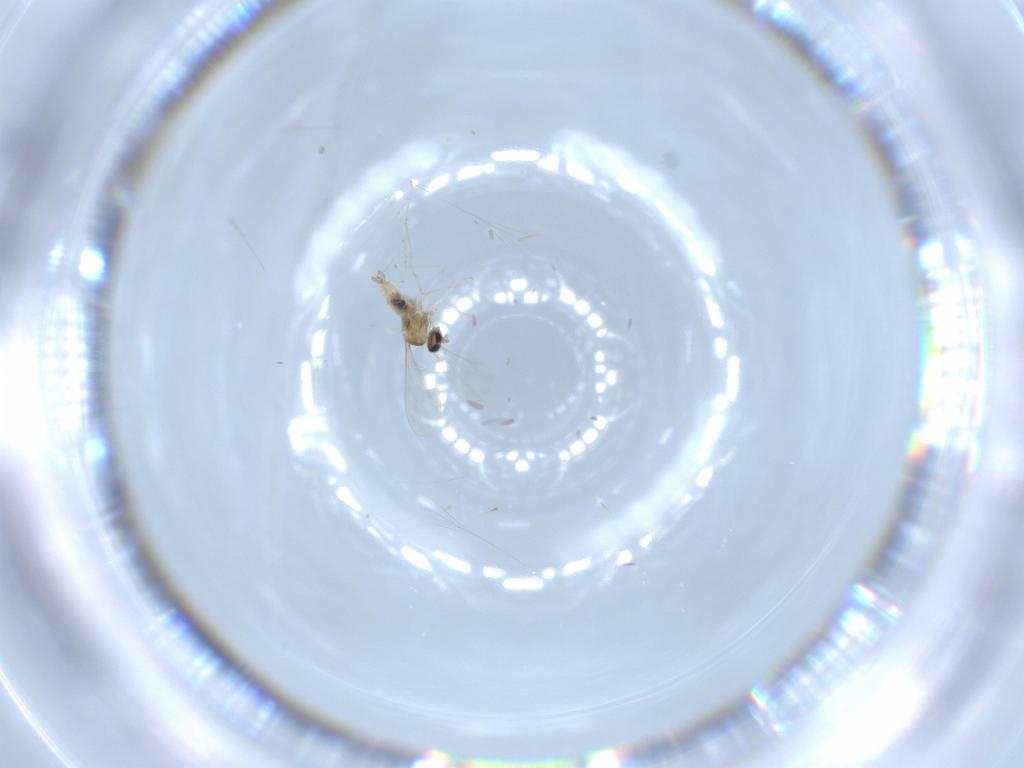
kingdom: Animalia
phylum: Arthropoda
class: Insecta
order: Diptera
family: Cecidomyiidae
